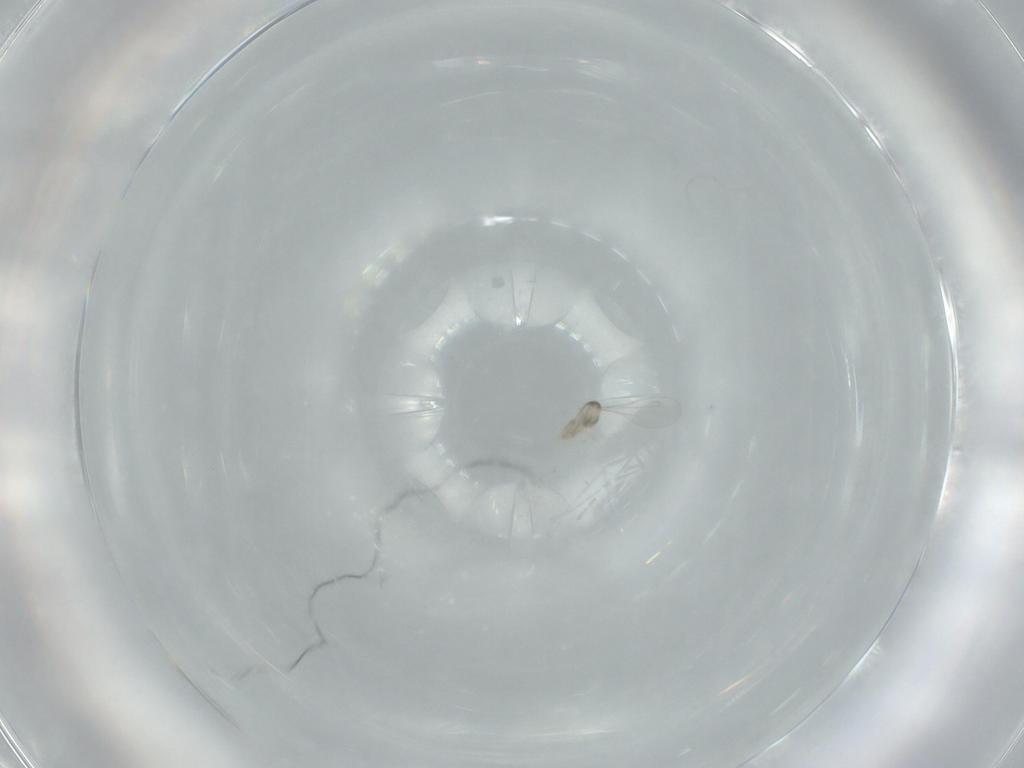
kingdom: Animalia
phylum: Arthropoda
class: Insecta
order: Diptera
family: Cecidomyiidae
